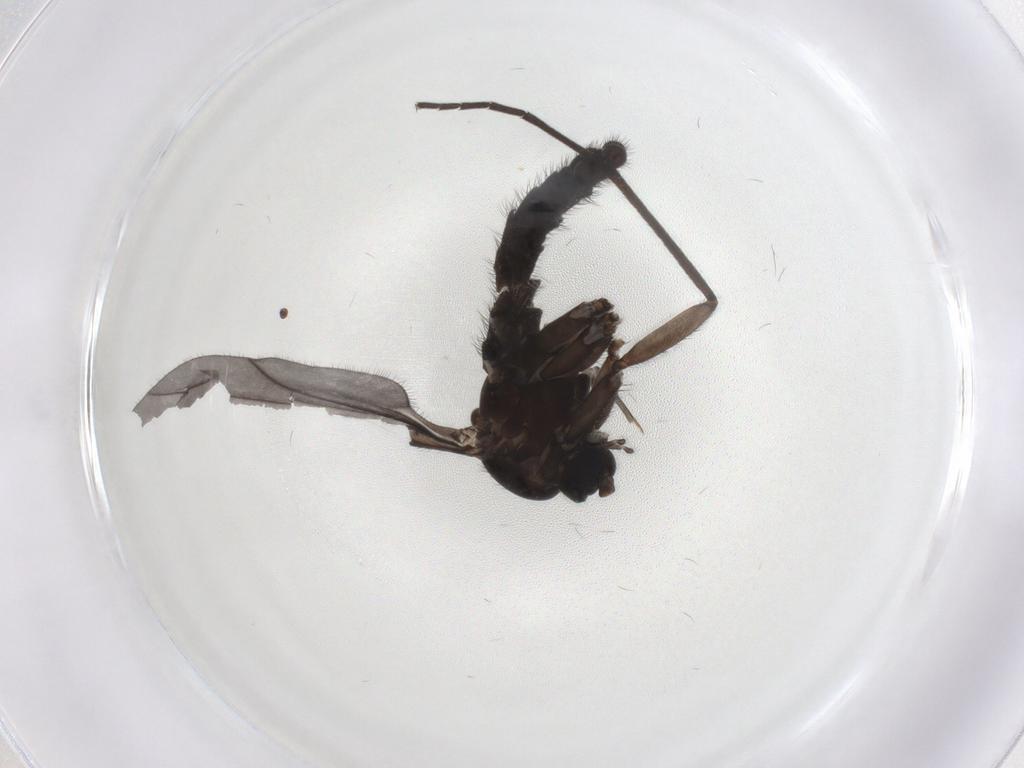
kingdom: Animalia
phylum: Arthropoda
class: Insecta
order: Diptera
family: Sciaridae
